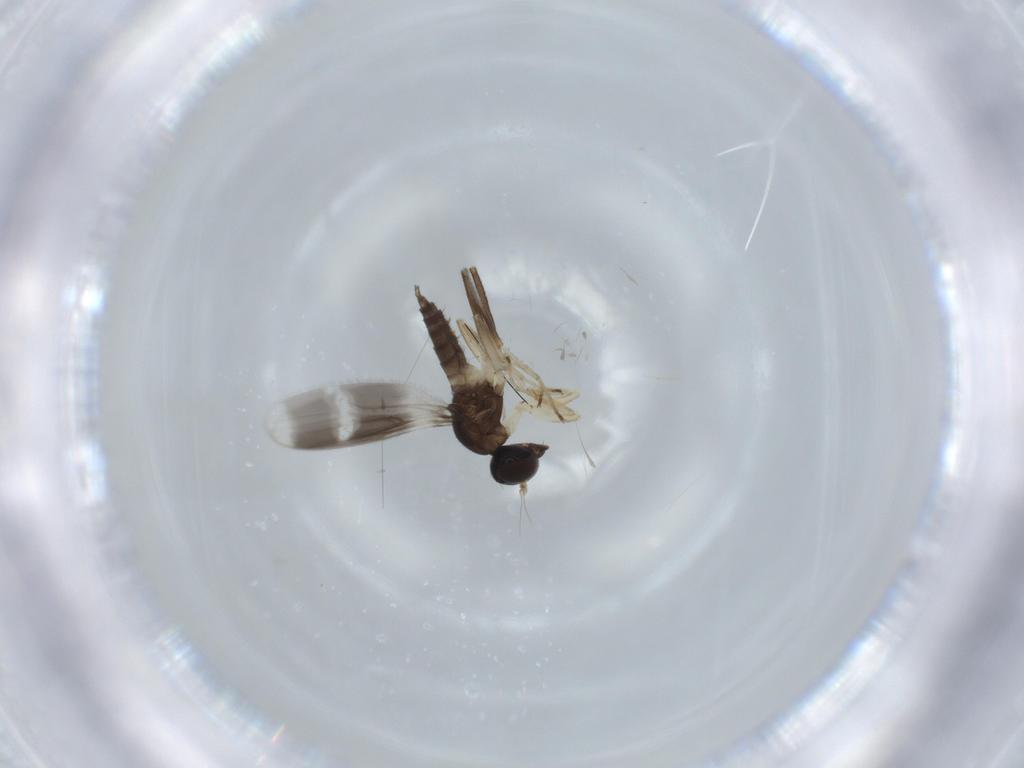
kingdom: Animalia
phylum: Arthropoda
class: Insecta
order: Diptera
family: Hybotidae
